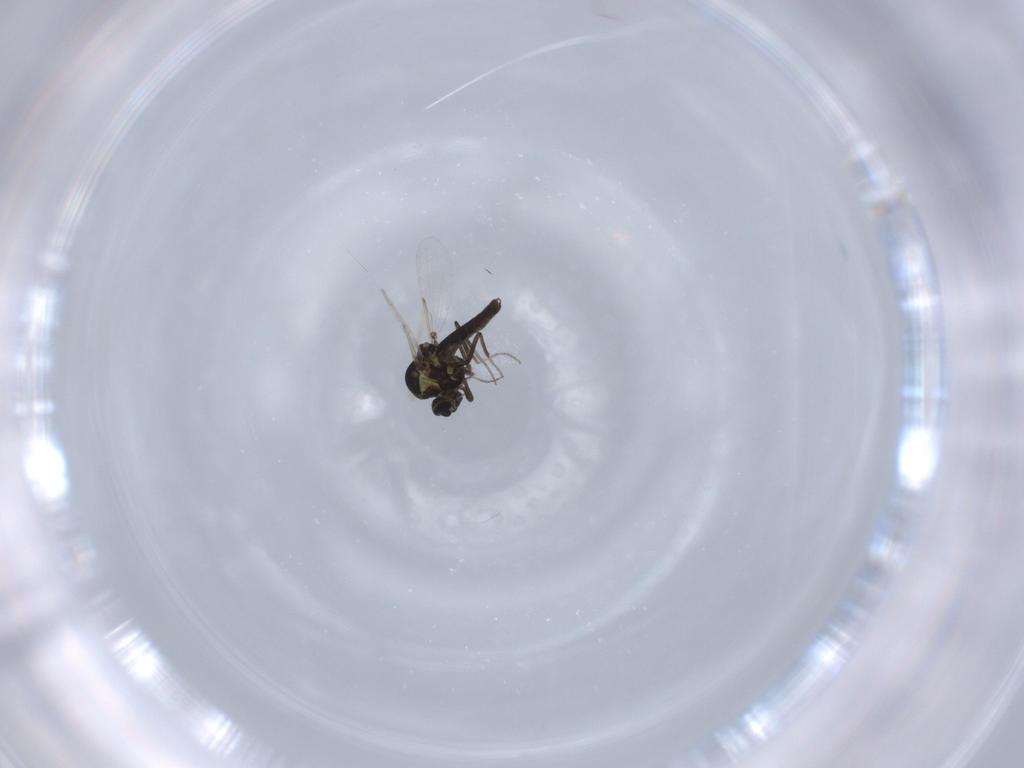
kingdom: Animalia
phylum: Arthropoda
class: Insecta
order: Diptera
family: Ceratopogonidae
